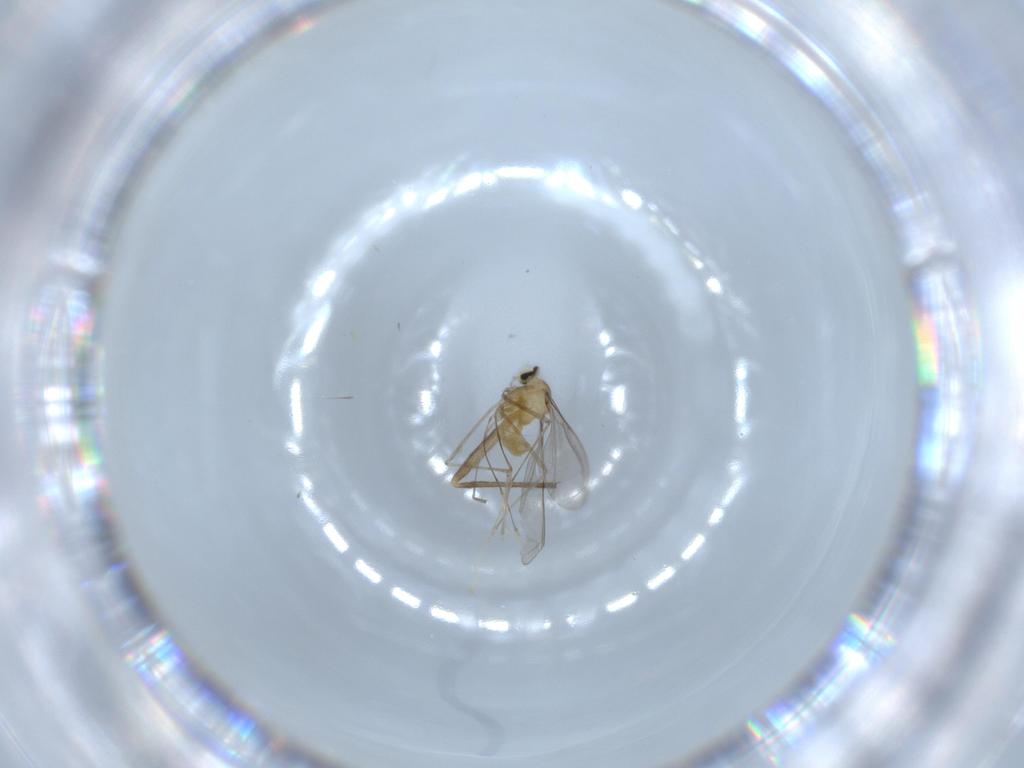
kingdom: Animalia
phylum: Arthropoda
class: Insecta
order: Diptera
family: Cecidomyiidae
